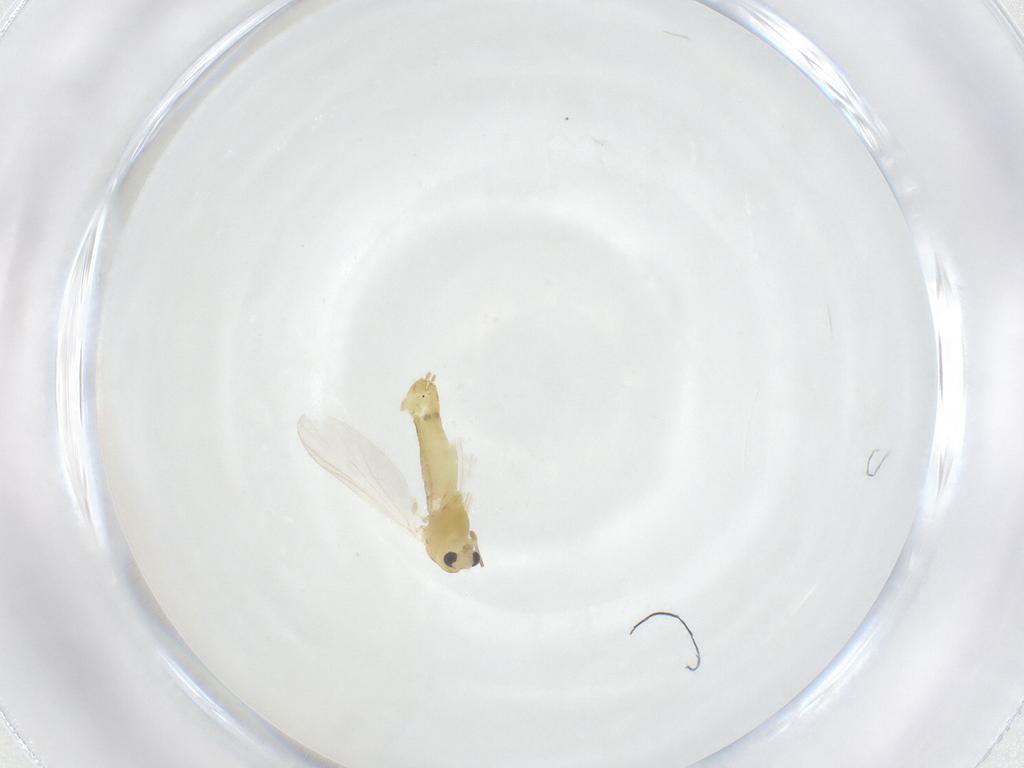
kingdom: Animalia
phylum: Arthropoda
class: Insecta
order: Diptera
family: Chironomidae
